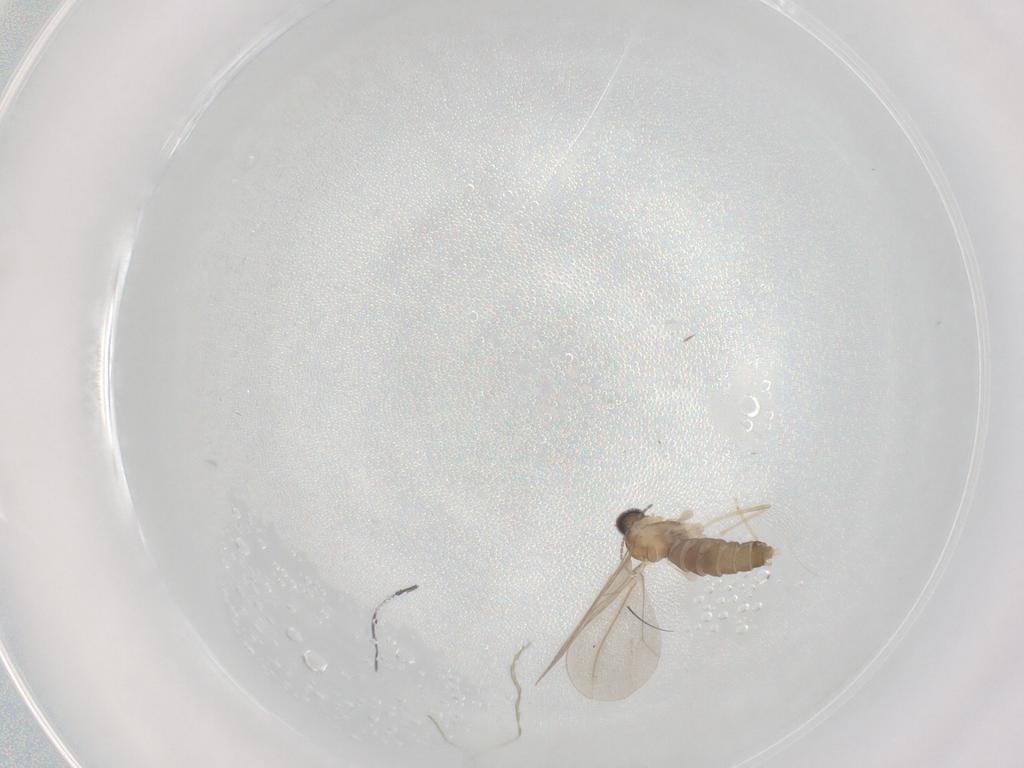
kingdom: Animalia
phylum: Arthropoda
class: Insecta
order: Diptera
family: Cecidomyiidae
